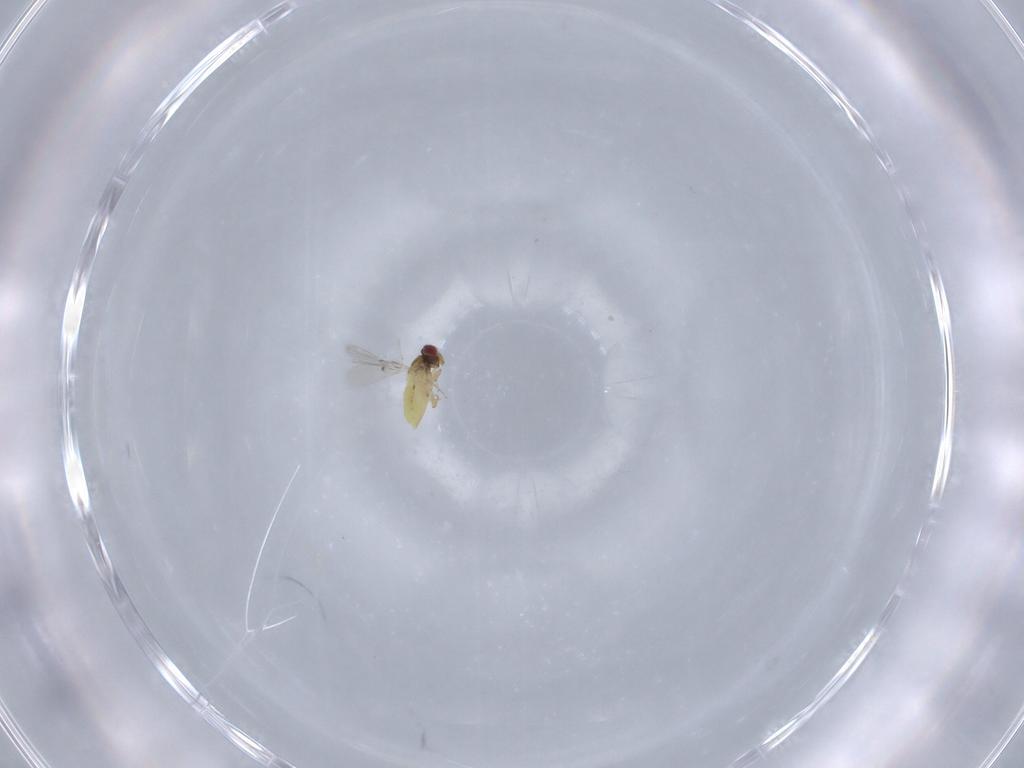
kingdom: Animalia
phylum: Arthropoda
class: Insecta
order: Hymenoptera
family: Trichogrammatidae
